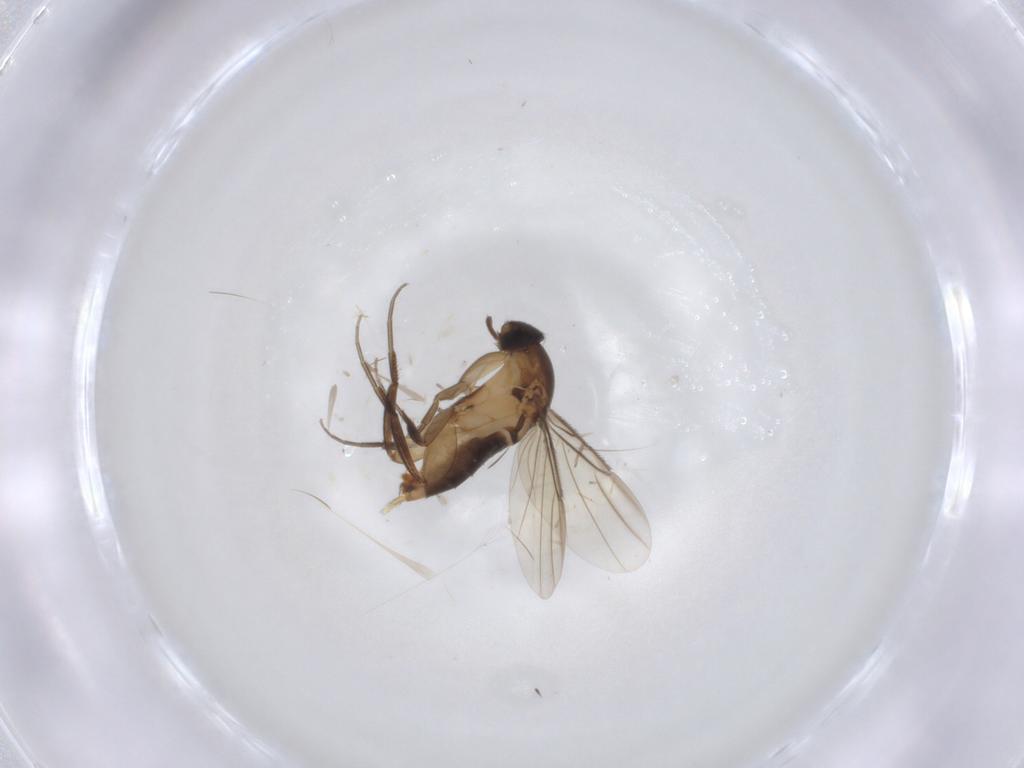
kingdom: Animalia
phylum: Arthropoda
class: Insecta
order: Diptera
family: Phoridae
